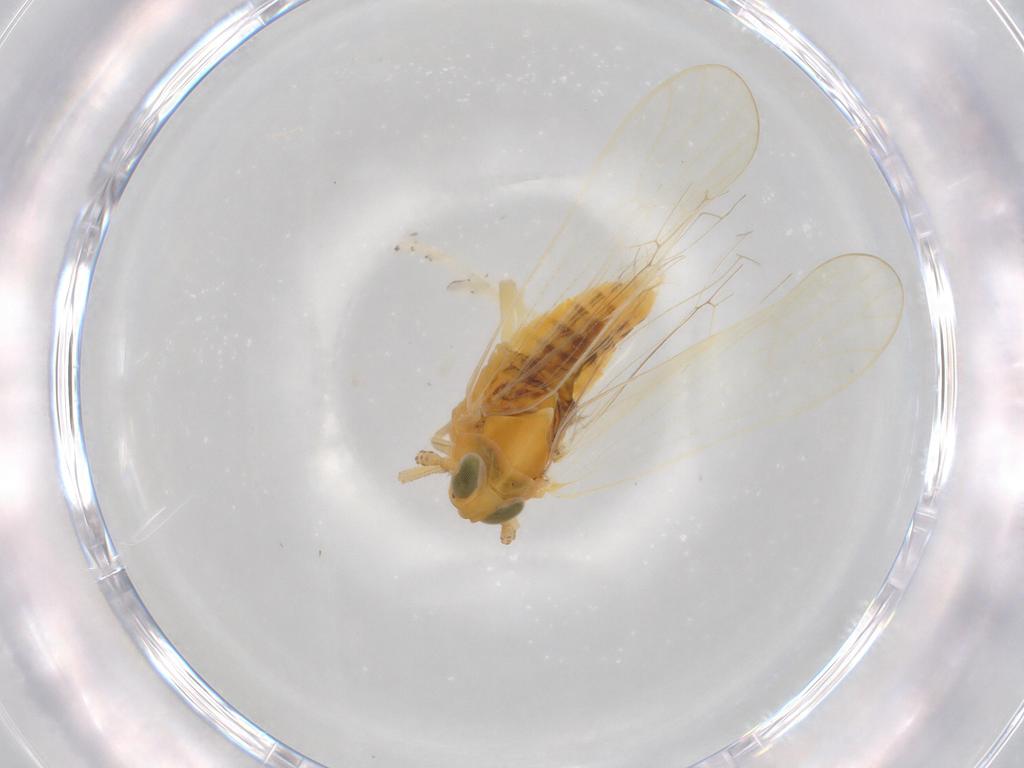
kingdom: Animalia
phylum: Arthropoda
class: Insecta
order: Hemiptera
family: Delphacidae
